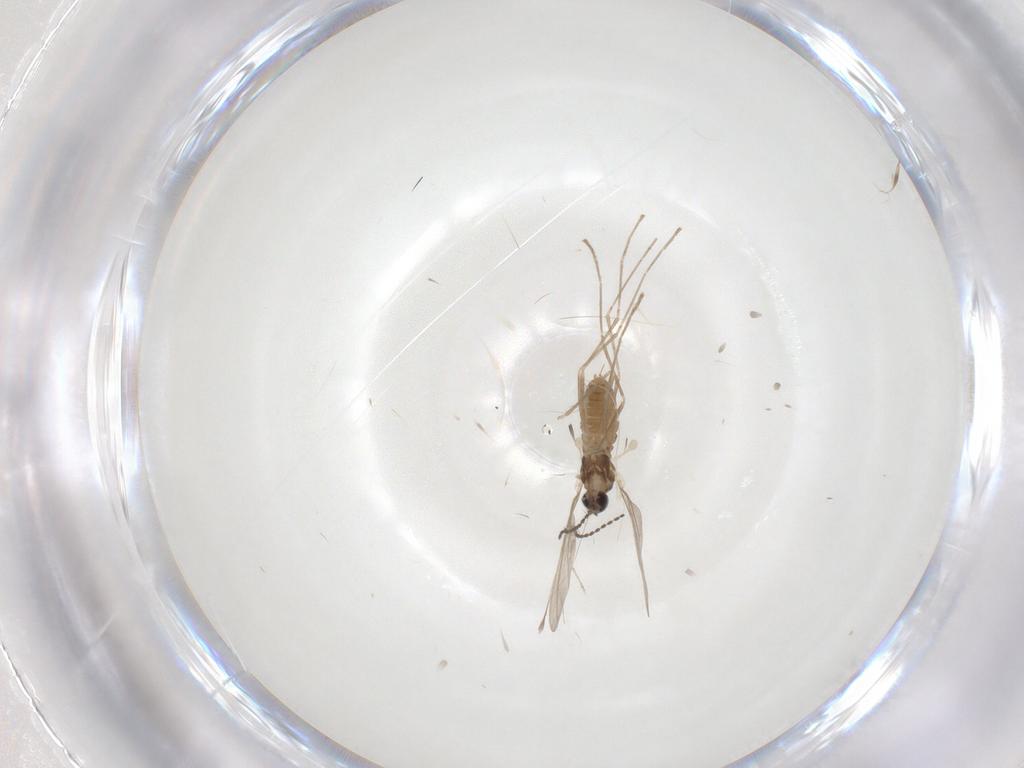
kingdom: Animalia
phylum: Arthropoda
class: Insecta
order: Diptera
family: Cecidomyiidae
